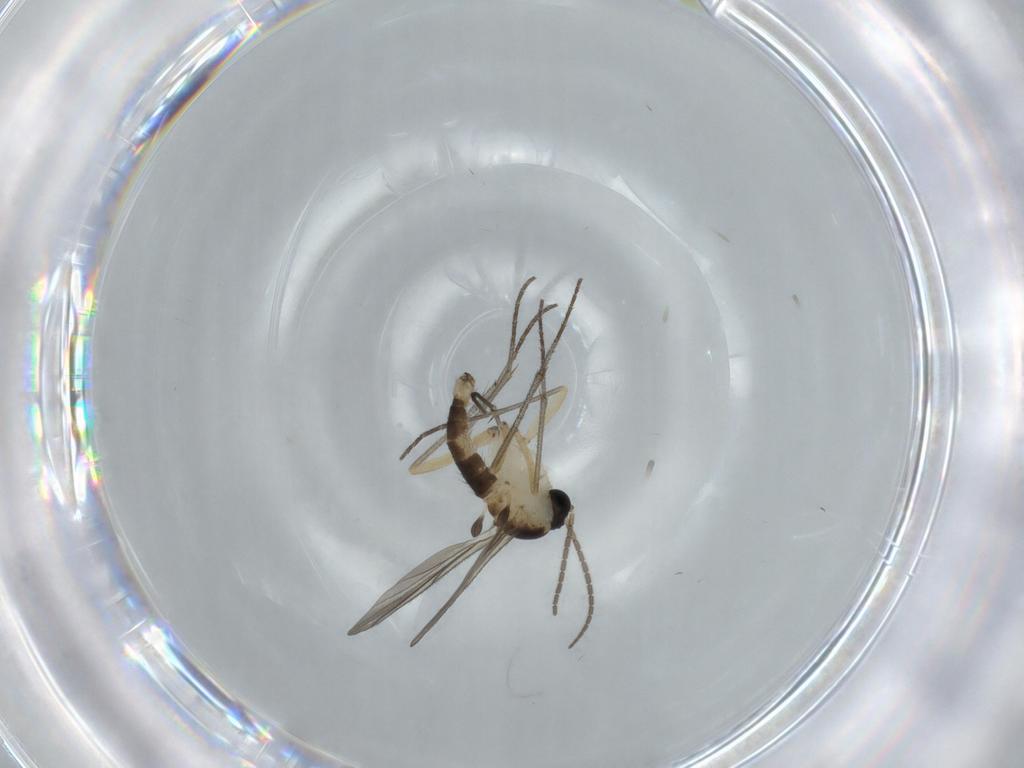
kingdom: Animalia
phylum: Arthropoda
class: Insecta
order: Diptera
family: Sciaridae
